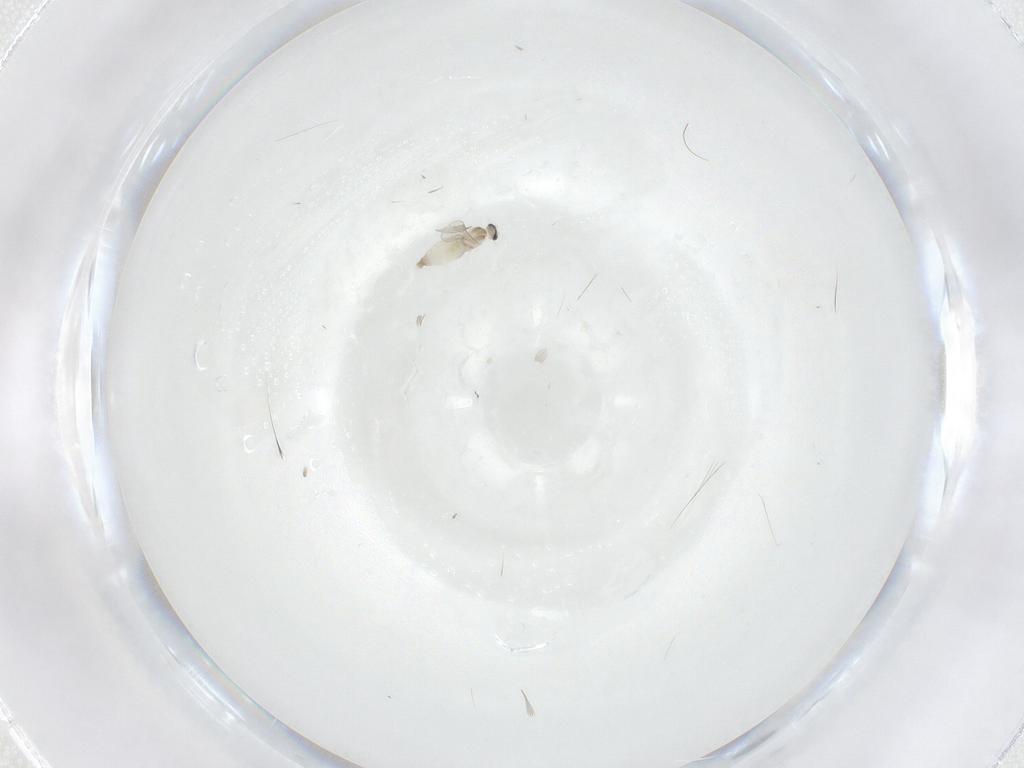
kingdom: Animalia
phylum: Arthropoda
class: Insecta
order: Diptera
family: Cecidomyiidae
